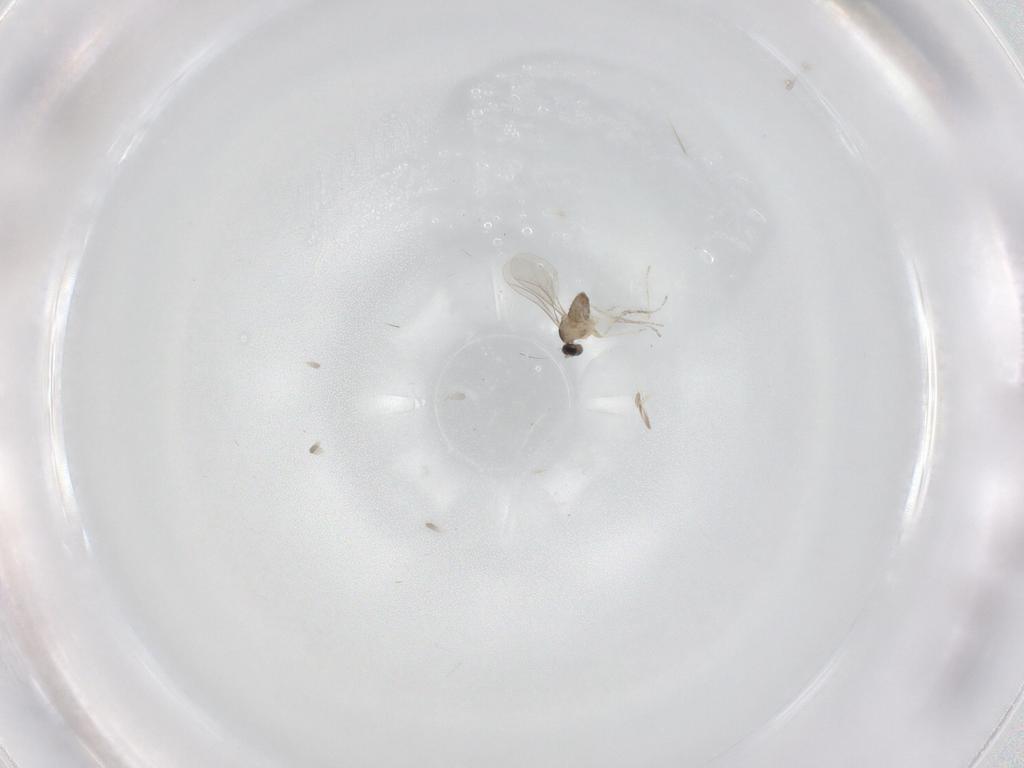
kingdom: Animalia
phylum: Arthropoda
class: Insecta
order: Diptera
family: Cecidomyiidae
